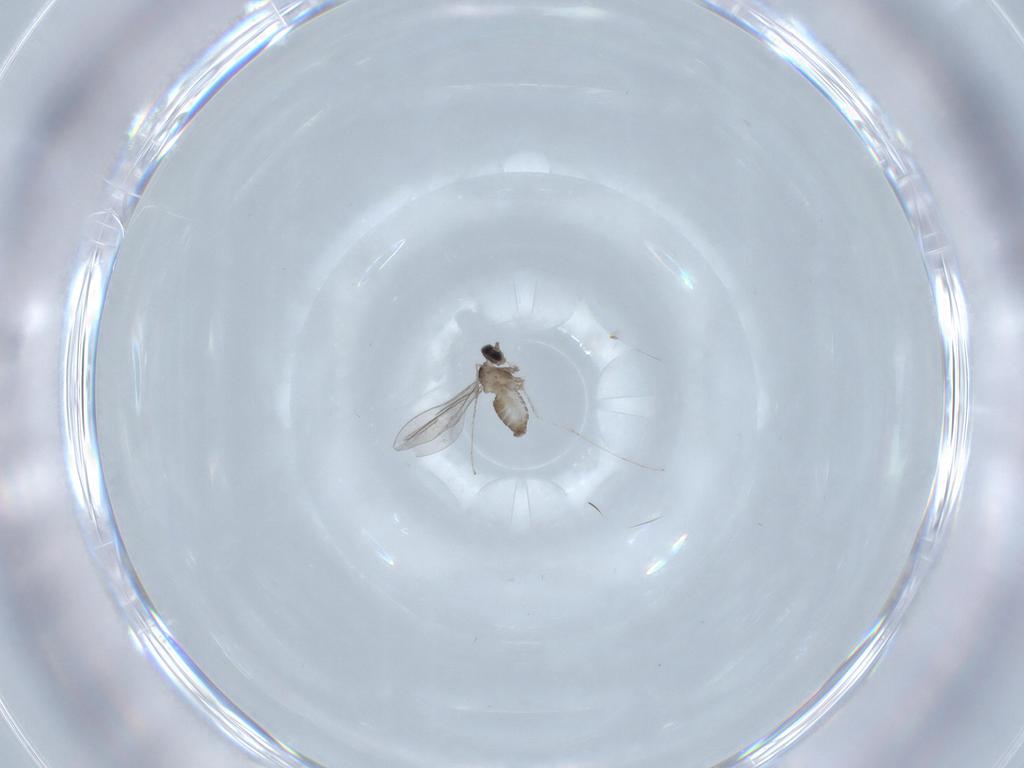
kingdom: Animalia
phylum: Arthropoda
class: Insecta
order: Diptera
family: Cecidomyiidae
